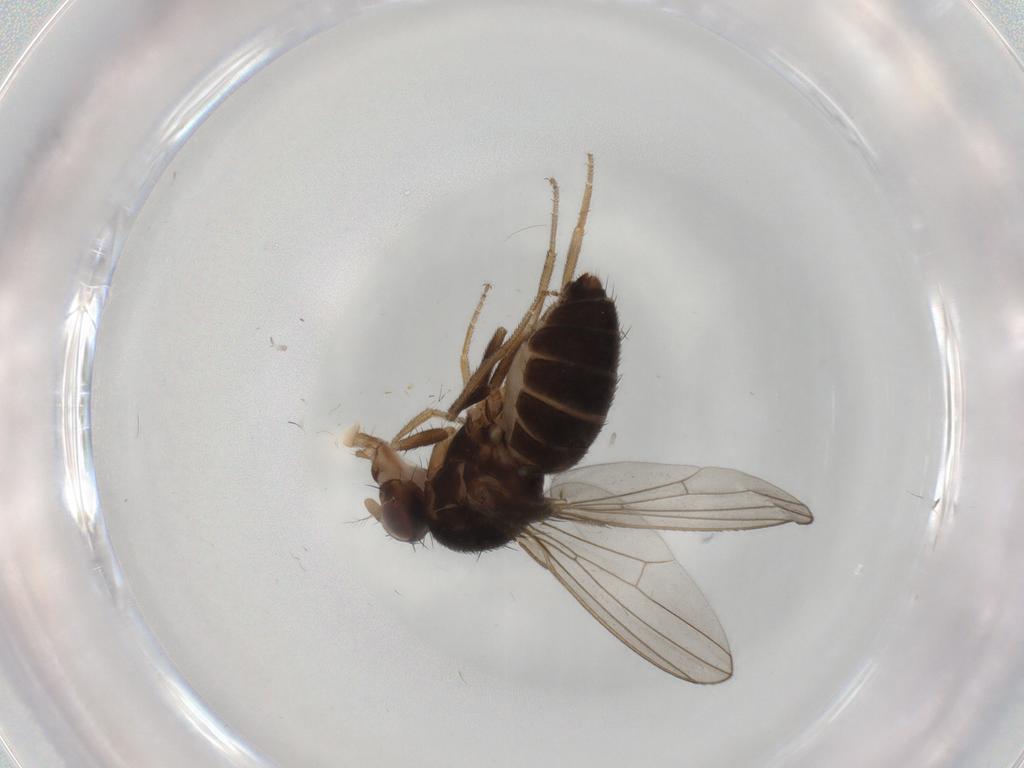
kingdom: Animalia
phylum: Arthropoda
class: Insecta
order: Diptera
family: Drosophilidae
